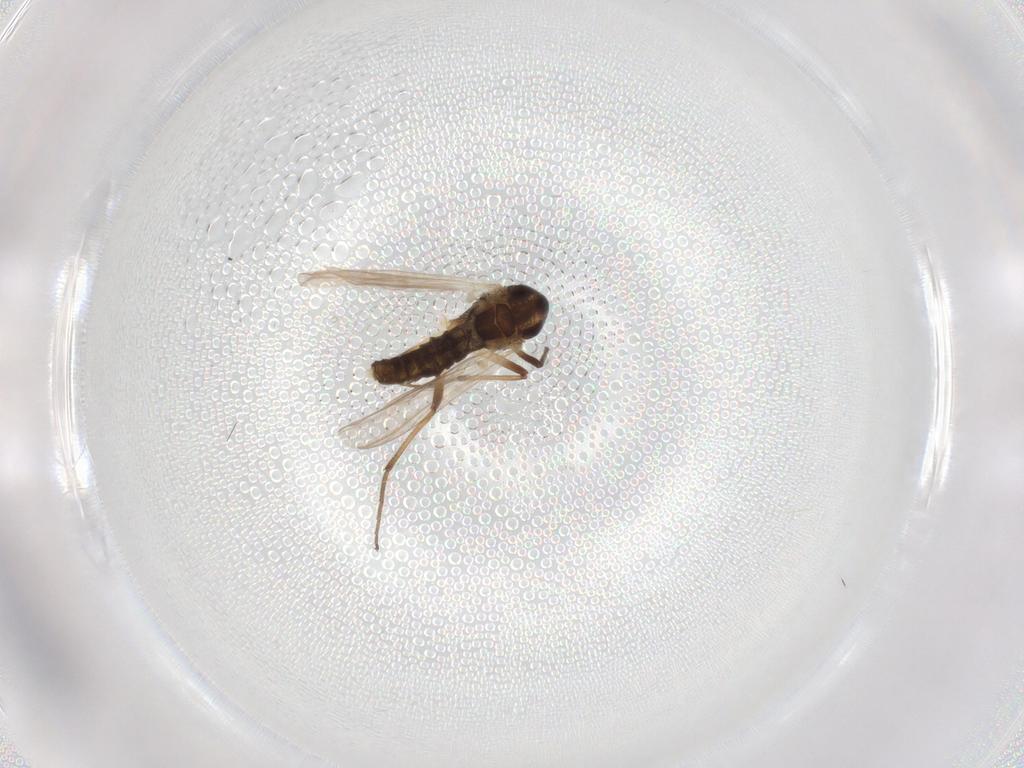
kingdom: Animalia
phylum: Arthropoda
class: Insecta
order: Diptera
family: Chironomidae
